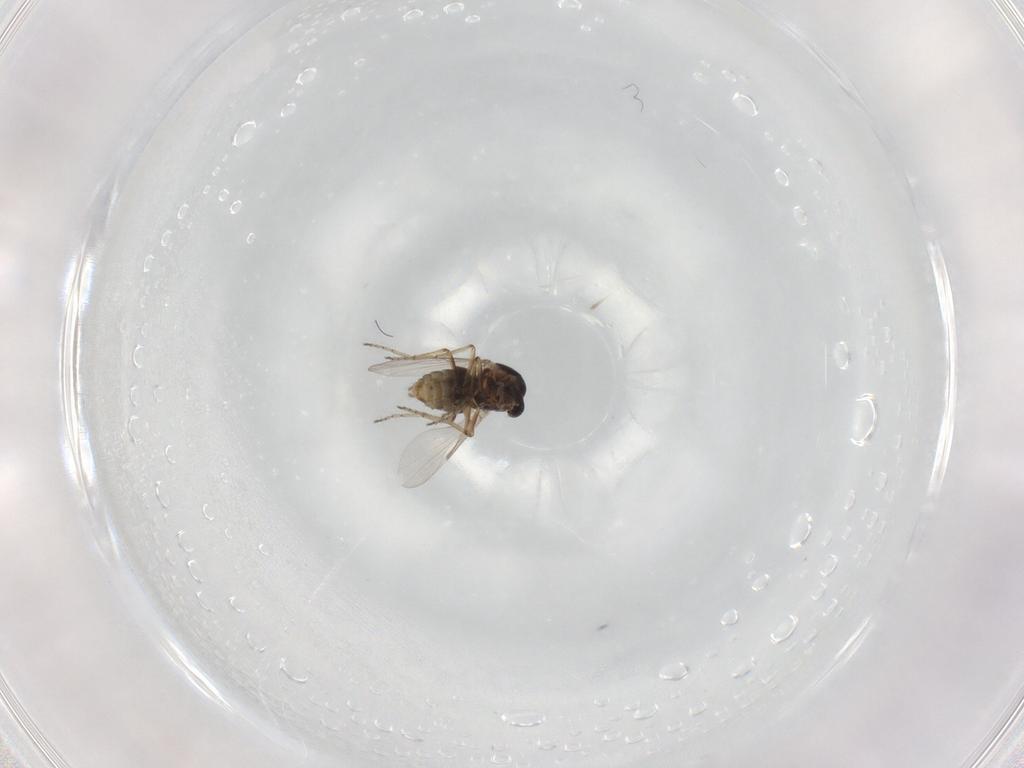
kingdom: Animalia
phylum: Arthropoda
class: Insecta
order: Diptera
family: Ceratopogonidae
